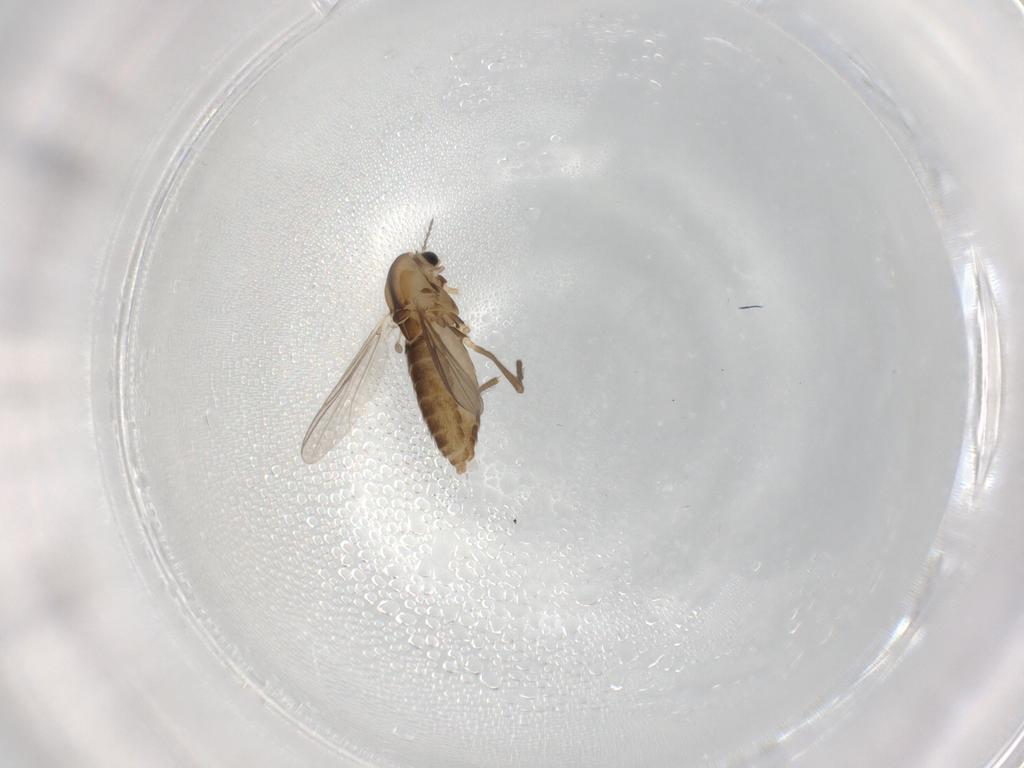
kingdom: Animalia
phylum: Arthropoda
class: Insecta
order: Diptera
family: Chironomidae
